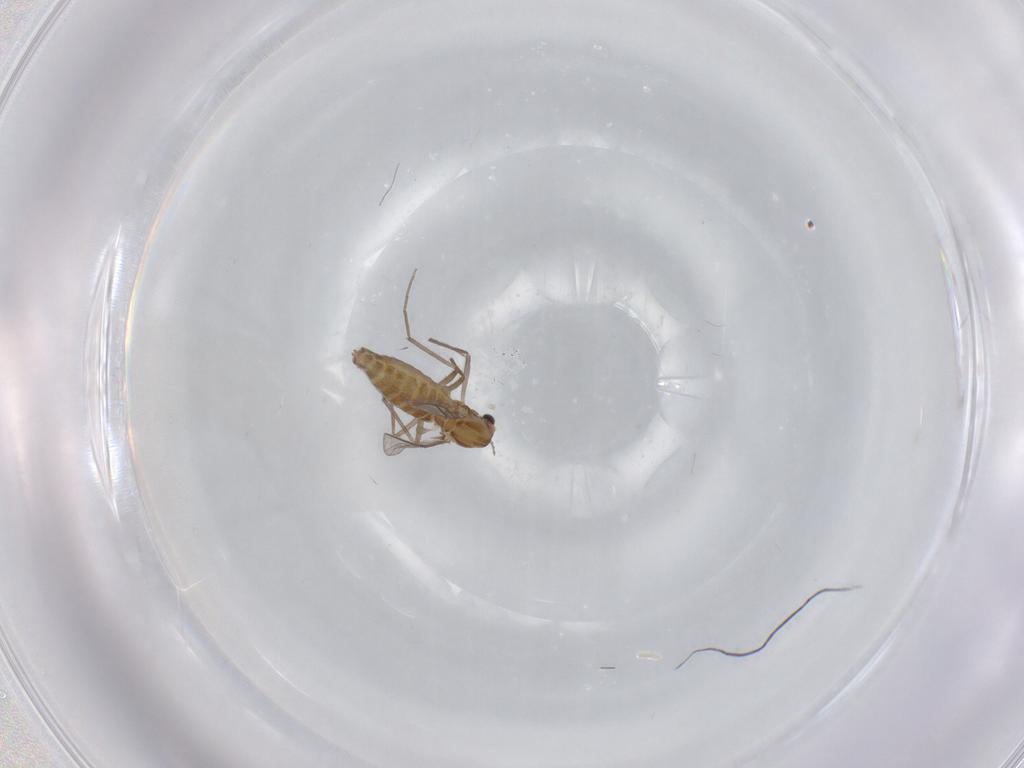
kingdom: Animalia
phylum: Arthropoda
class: Insecta
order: Diptera
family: Chironomidae
